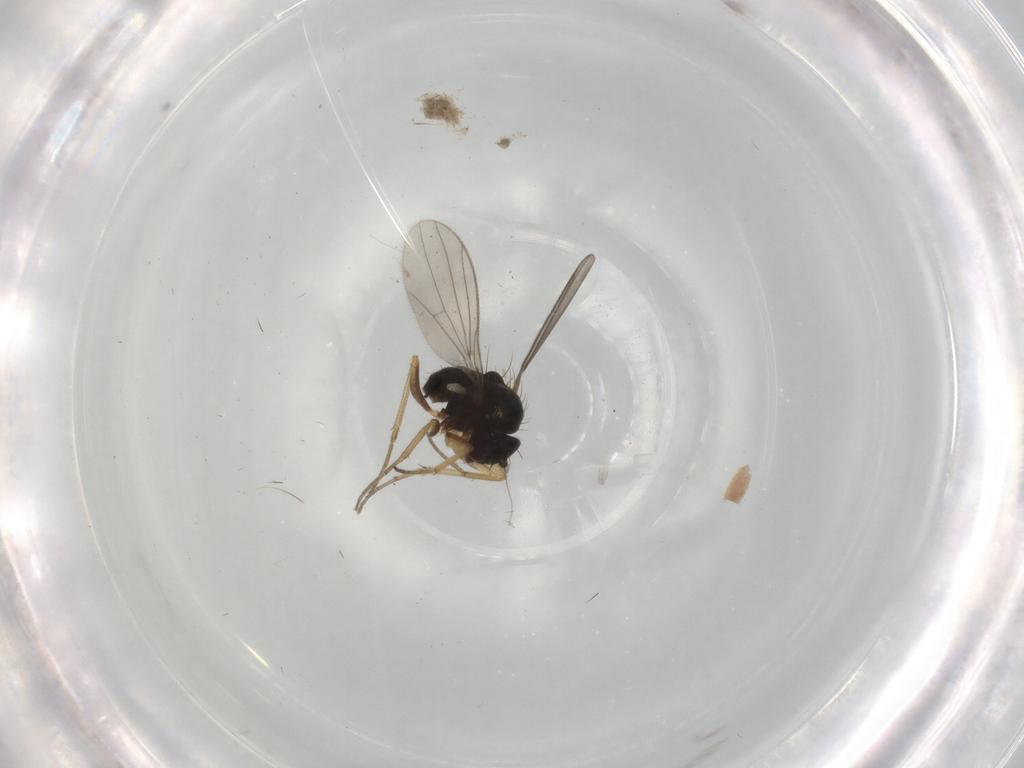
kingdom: Animalia
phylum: Arthropoda
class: Insecta
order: Diptera
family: Dolichopodidae
